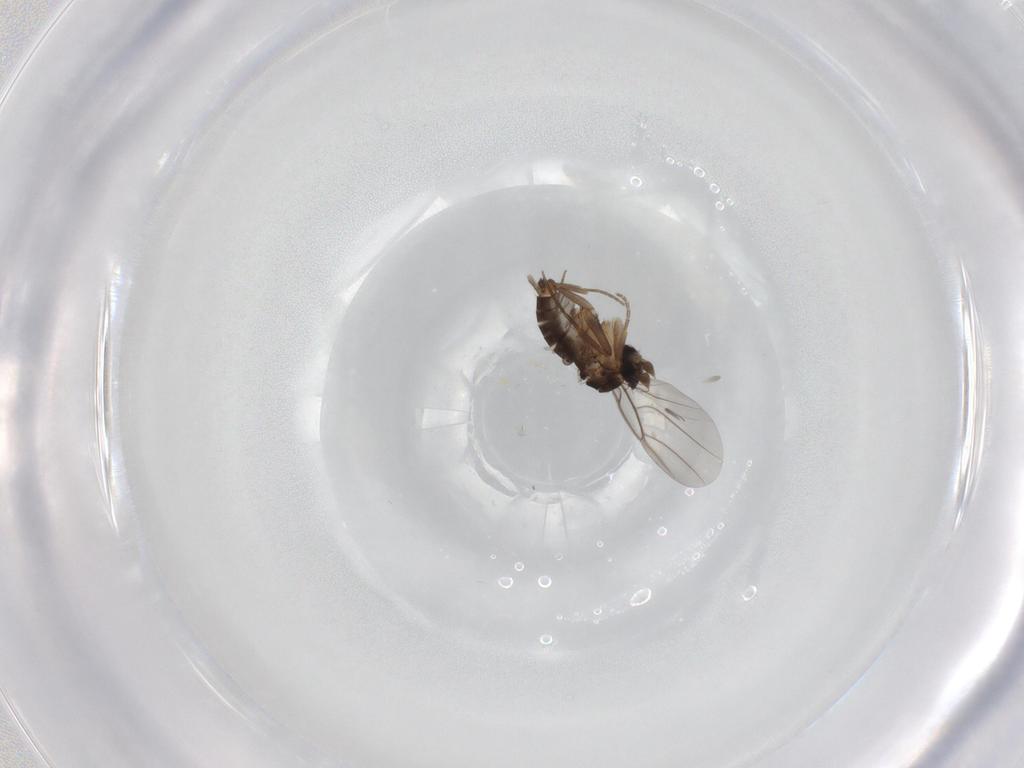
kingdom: Animalia
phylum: Arthropoda
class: Insecta
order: Diptera
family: Phoridae
